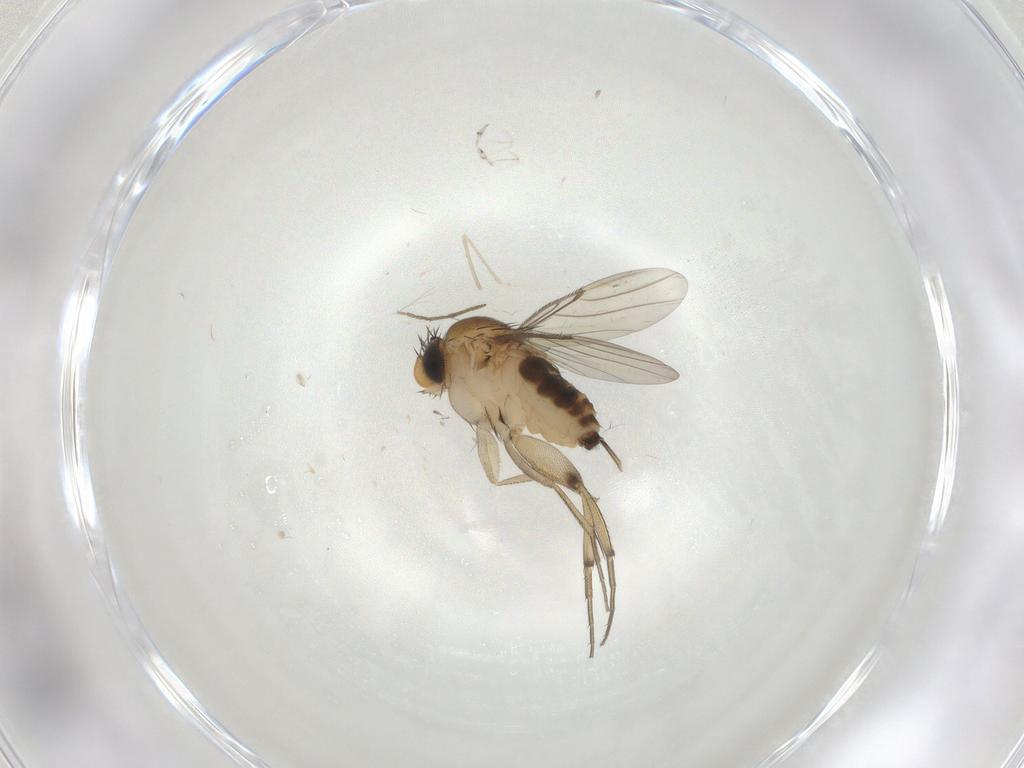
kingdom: Animalia
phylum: Arthropoda
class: Insecta
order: Diptera
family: Cecidomyiidae
